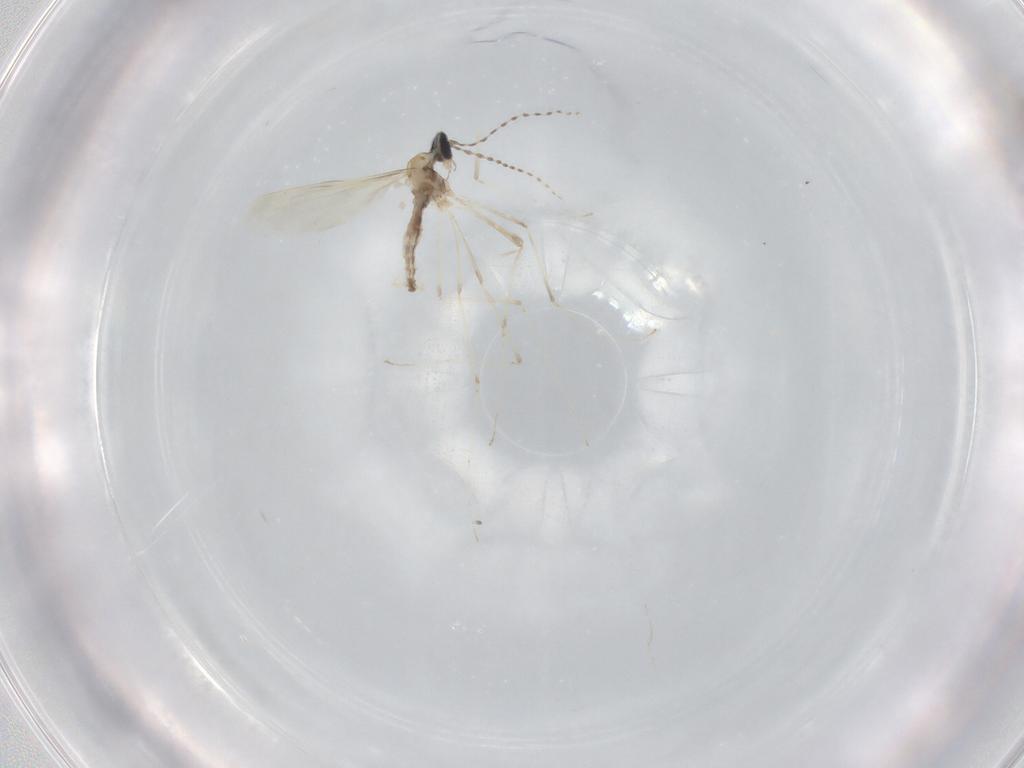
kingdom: Animalia
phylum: Arthropoda
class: Insecta
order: Diptera
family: Cecidomyiidae
